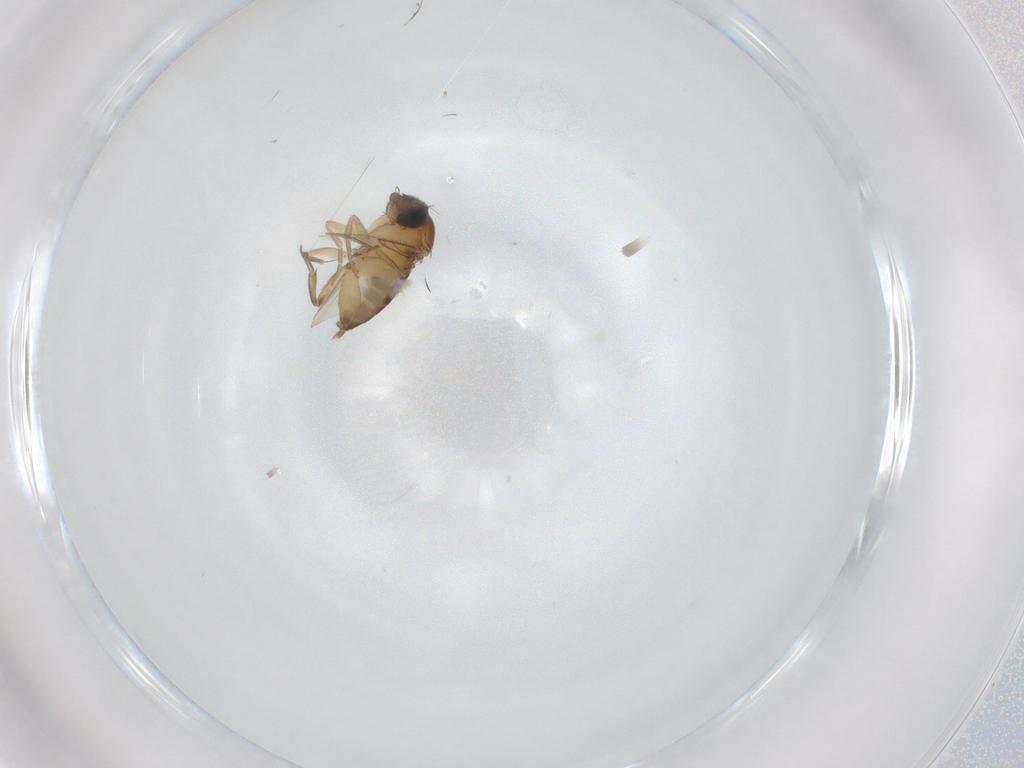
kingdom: Animalia
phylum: Arthropoda
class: Insecta
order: Diptera
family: Phoridae
